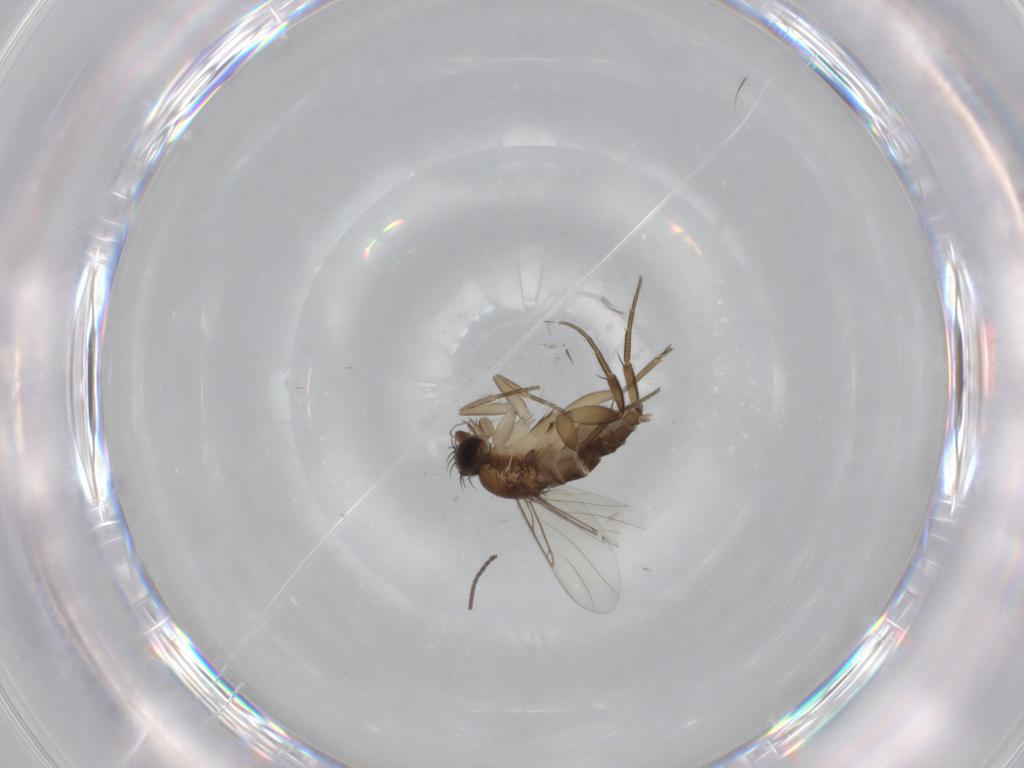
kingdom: Animalia
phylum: Arthropoda
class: Insecta
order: Diptera
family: Phoridae
